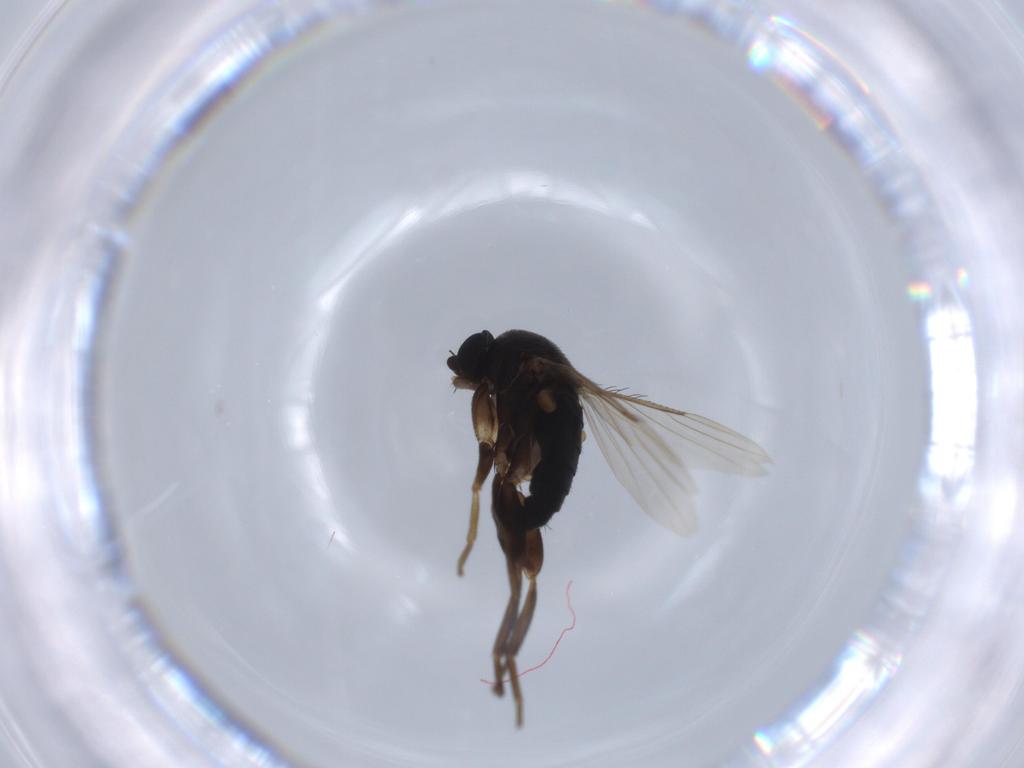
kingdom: Animalia
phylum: Arthropoda
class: Insecta
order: Diptera
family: Phoridae
